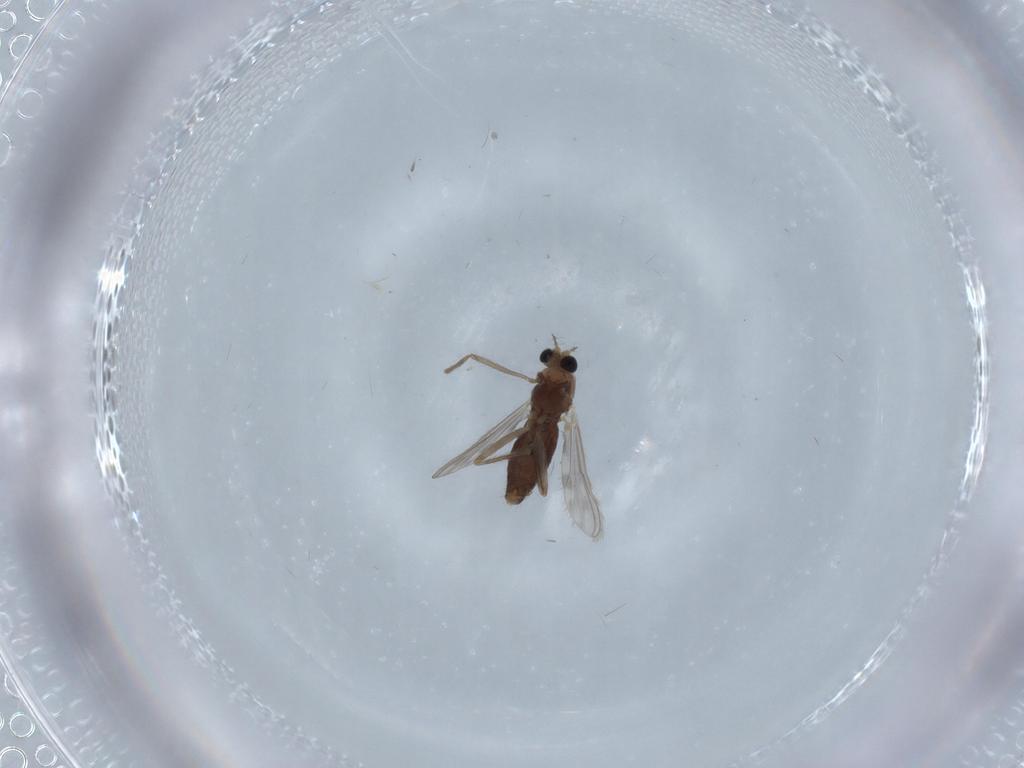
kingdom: Animalia
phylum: Arthropoda
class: Insecta
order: Diptera
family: Chironomidae
